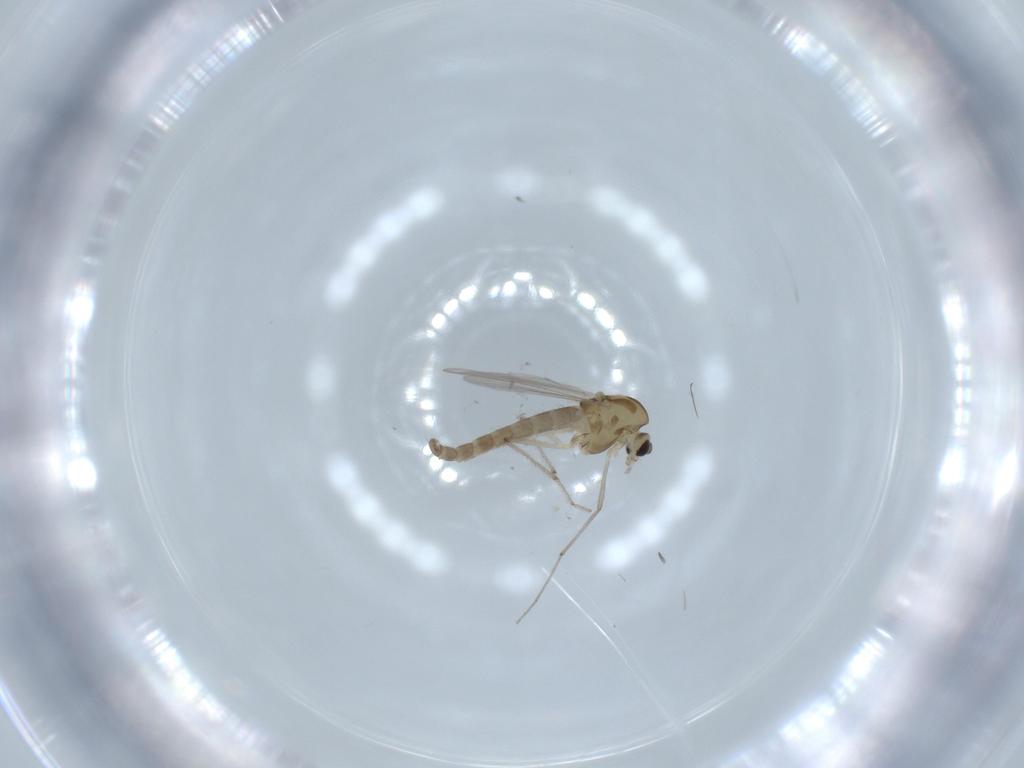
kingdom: Animalia
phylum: Arthropoda
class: Insecta
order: Diptera
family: Chironomidae
